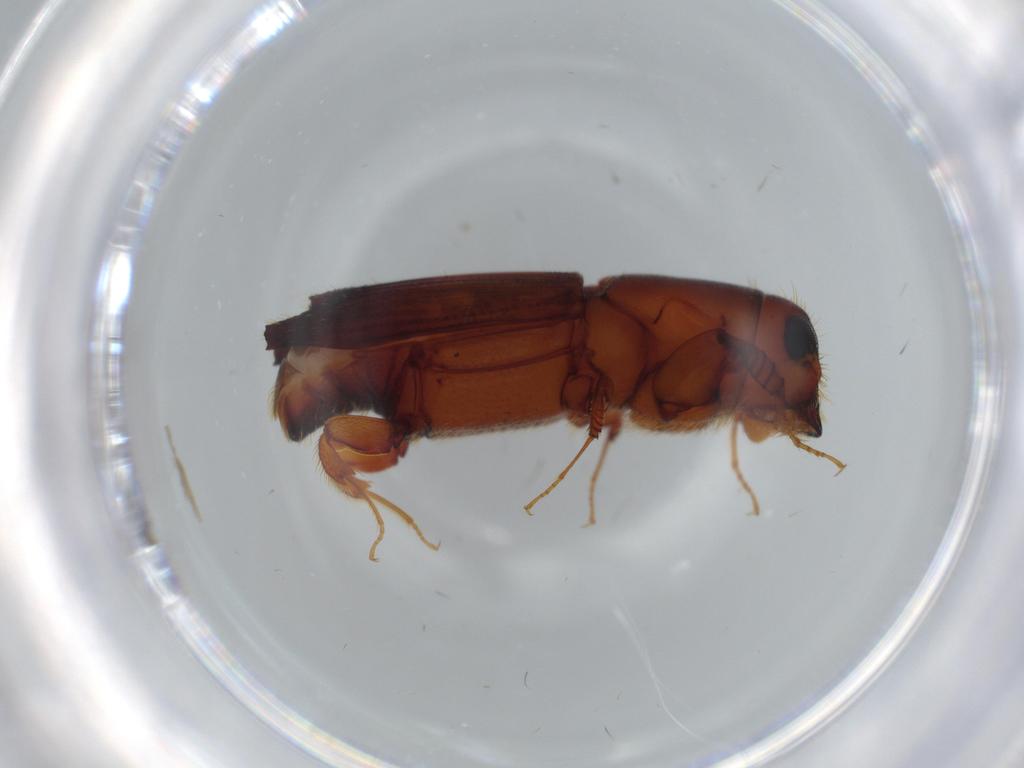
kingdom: Animalia
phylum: Arthropoda
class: Insecta
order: Coleoptera
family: Curculionidae
